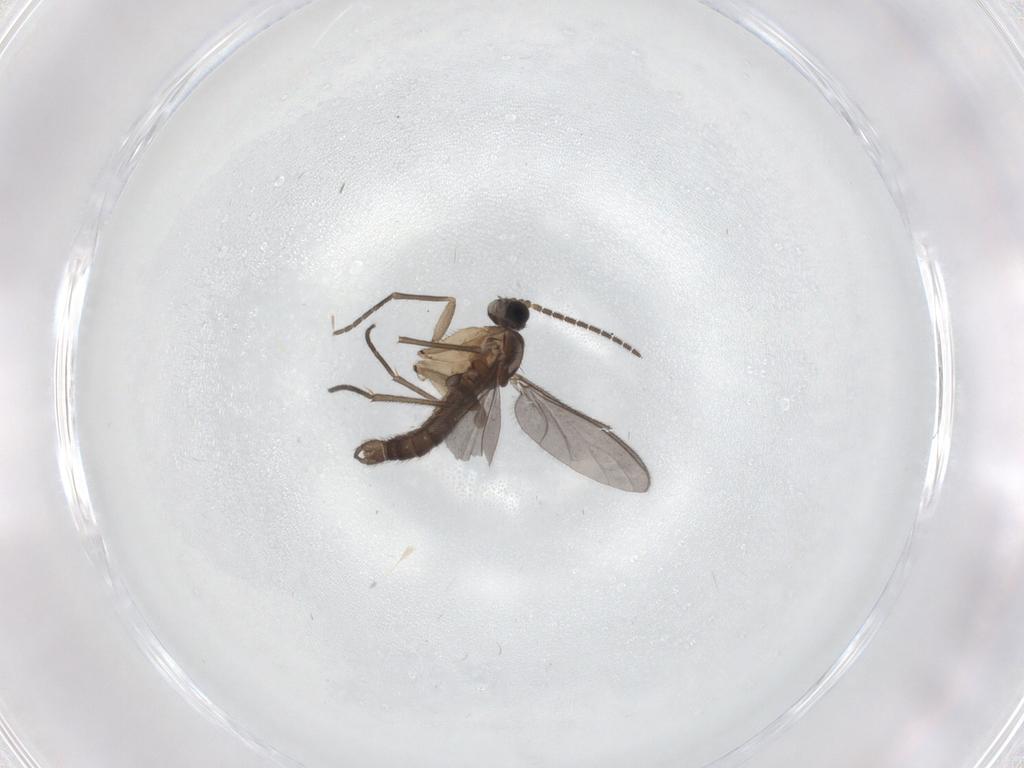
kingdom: Animalia
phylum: Arthropoda
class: Insecta
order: Diptera
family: Sciaridae
